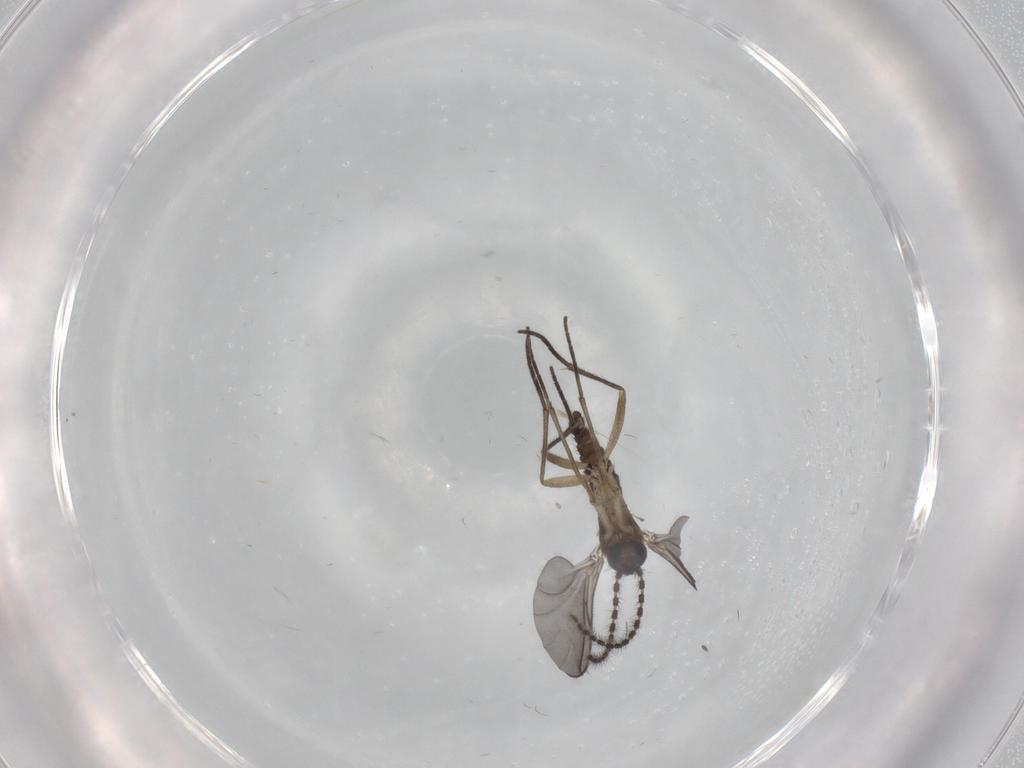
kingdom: Animalia
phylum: Arthropoda
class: Insecta
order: Diptera
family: Sciaridae
